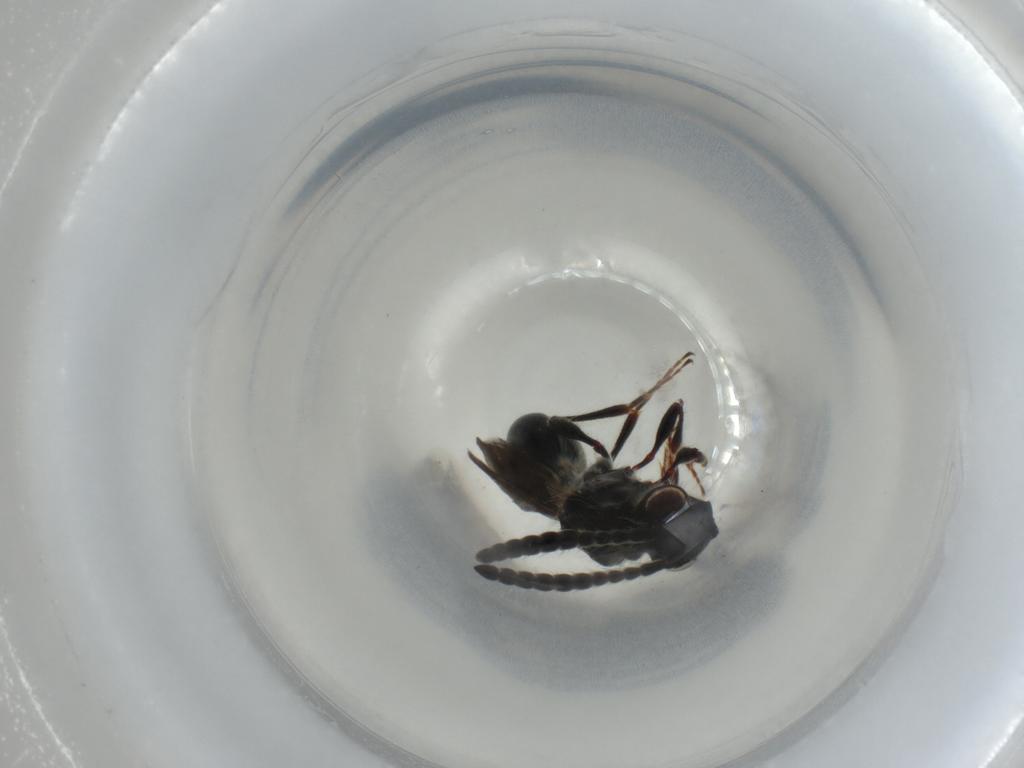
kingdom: Animalia
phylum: Arthropoda
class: Insecta
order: Hymenoptera
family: Diapriidae
